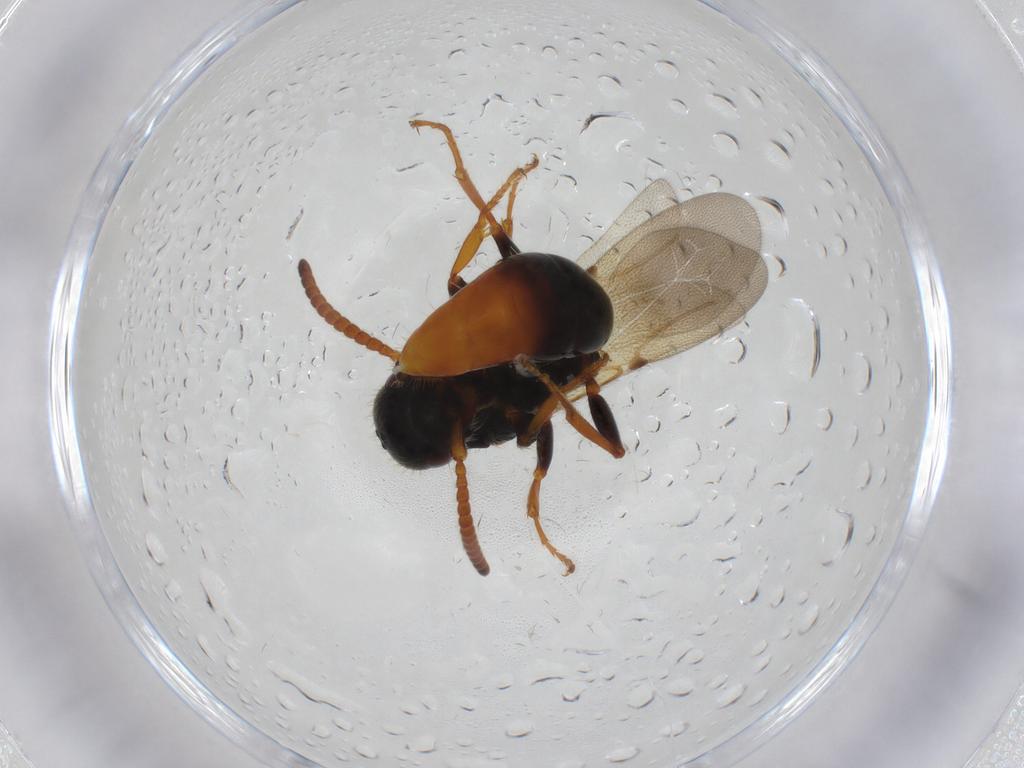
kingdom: Animalia
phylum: Arthropoda
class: Insecta
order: Hymenoptera
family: Bethylidae
